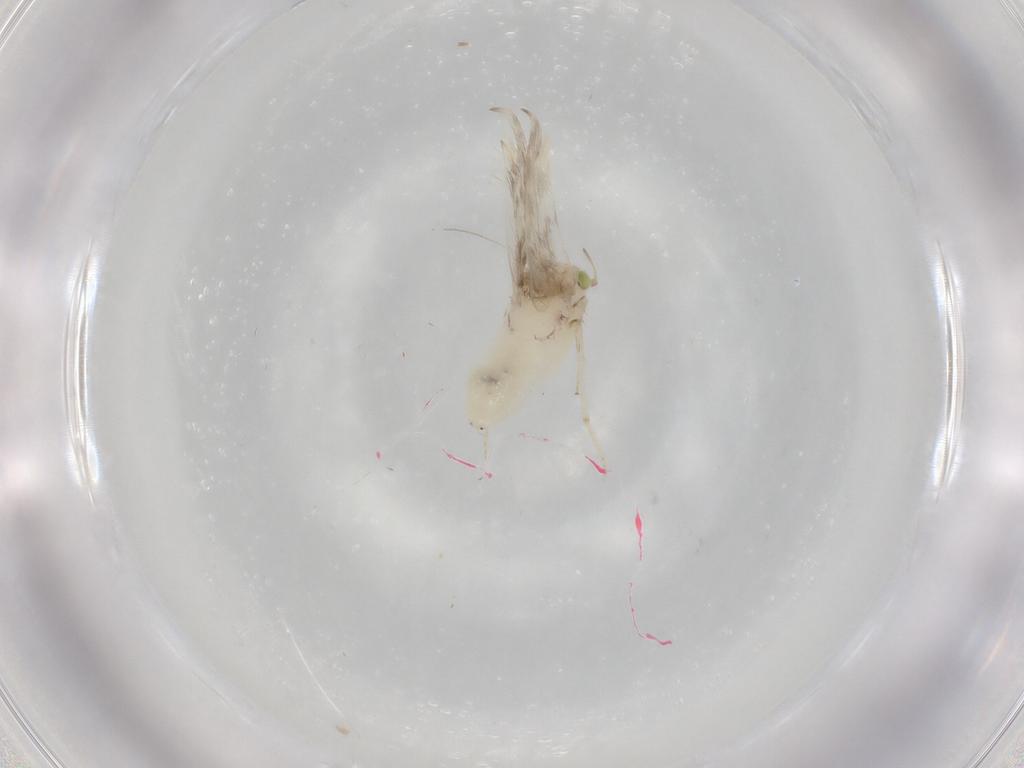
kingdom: Animalia
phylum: Arthropoda
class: Insecta
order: Psocodea
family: Lepidopsocidae
